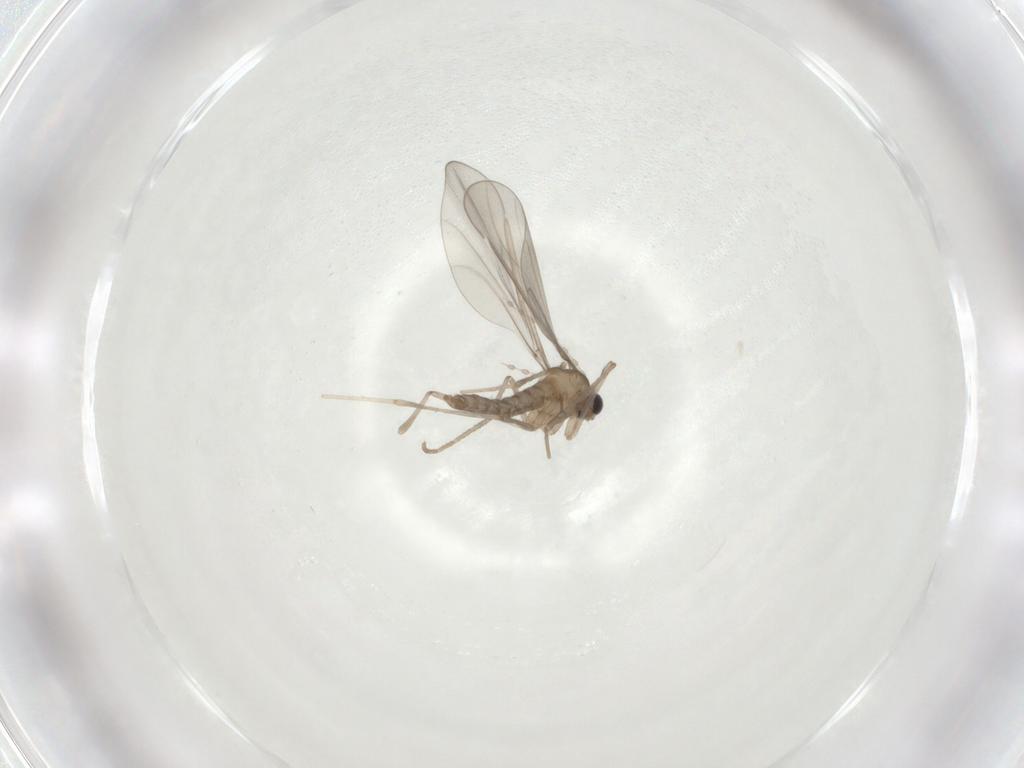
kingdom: Animalia
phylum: Arthropoda
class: Insecta
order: Diptera
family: Cecidomyiidae
